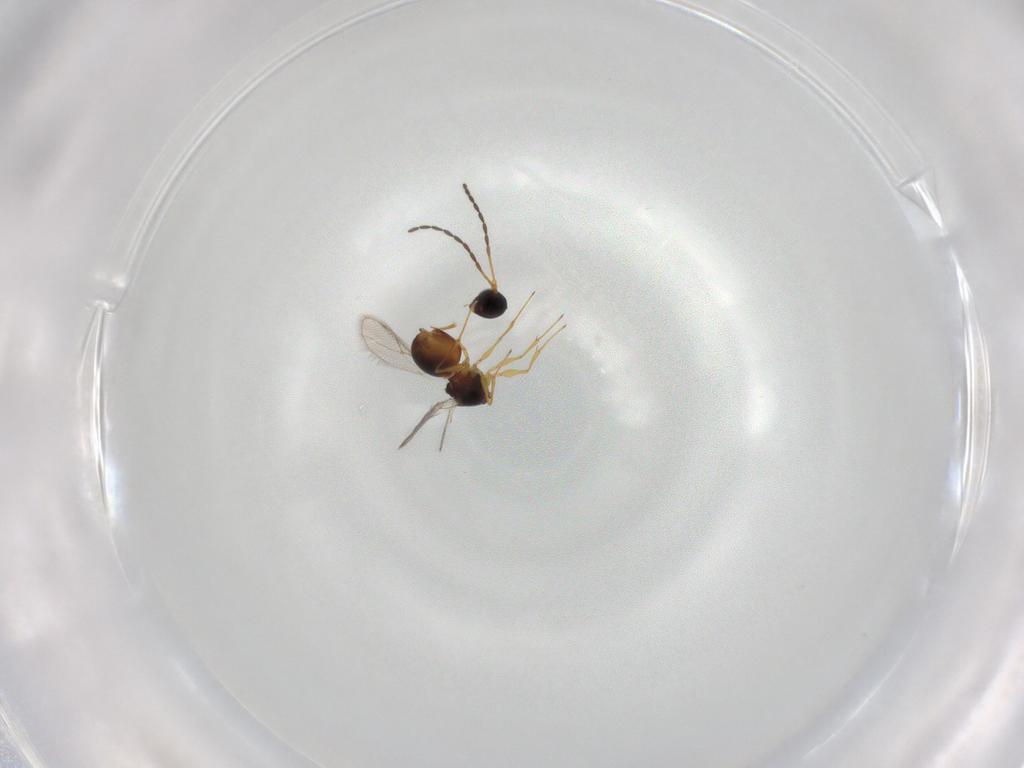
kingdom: Animalia
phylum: Arthropoda
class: Insecta
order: Hymenoptera
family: Figitidae
